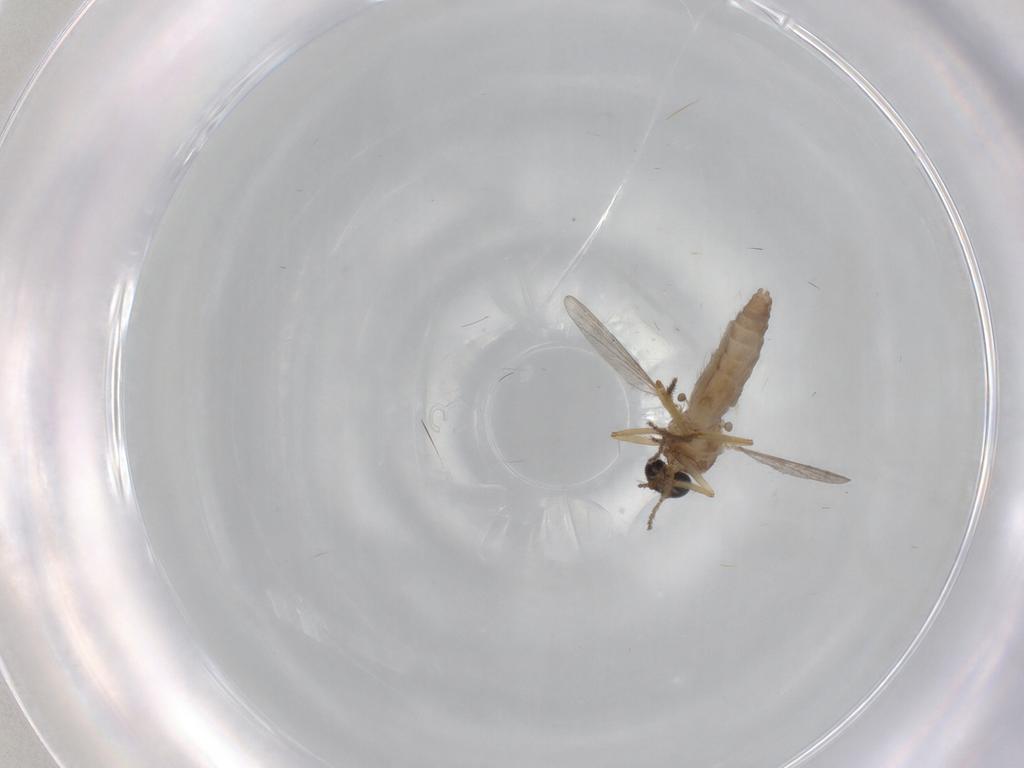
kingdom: Animalia
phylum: Arthropoda
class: Insecta
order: Diptera
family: Ceratopogonidae
